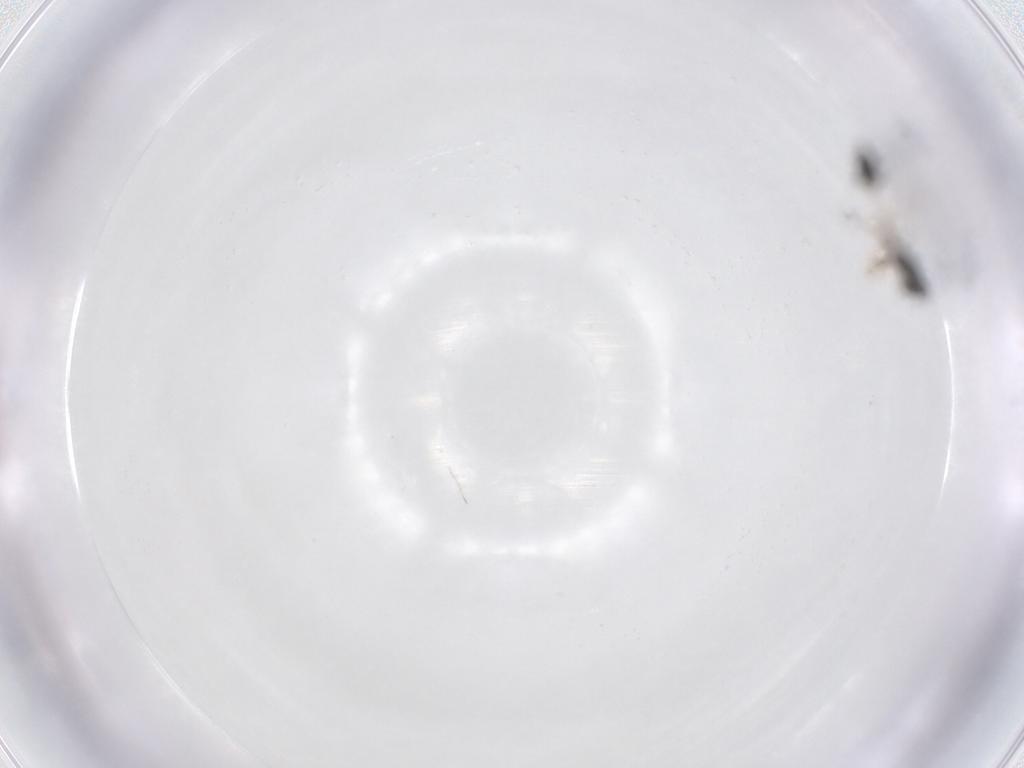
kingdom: Animalia
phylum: Arthropoda
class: Insecta
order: Hymenoptera
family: Mymaridae
